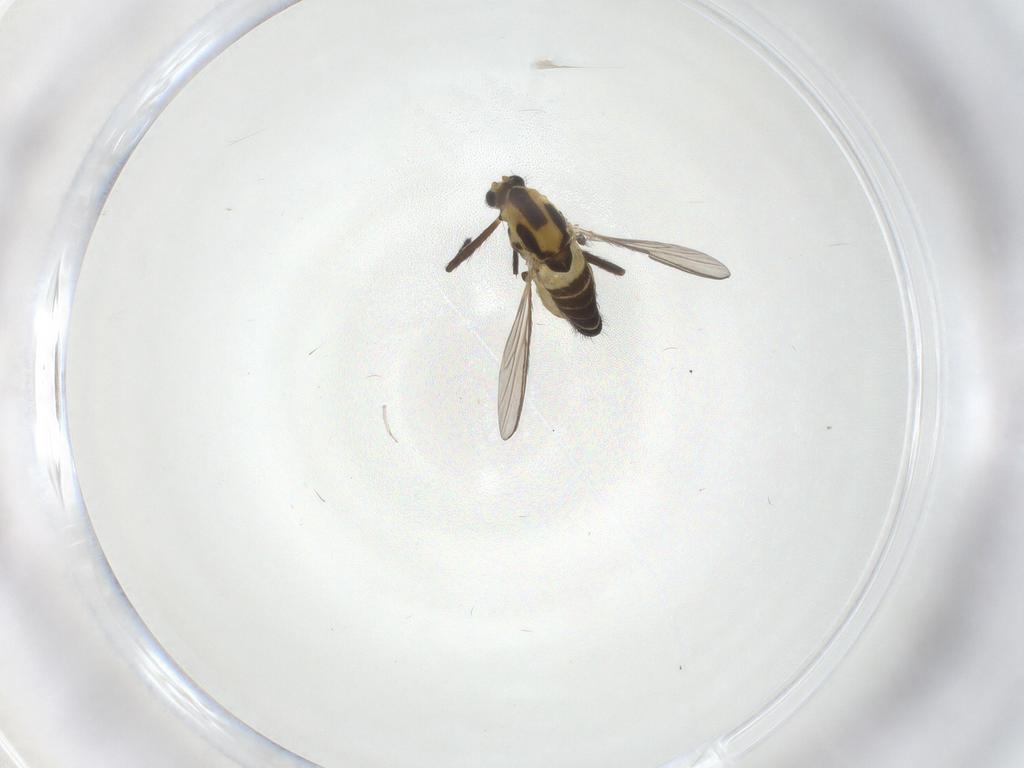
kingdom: Animalia
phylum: Arthropoda
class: Insecta
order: Diptera
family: Chironomidae
